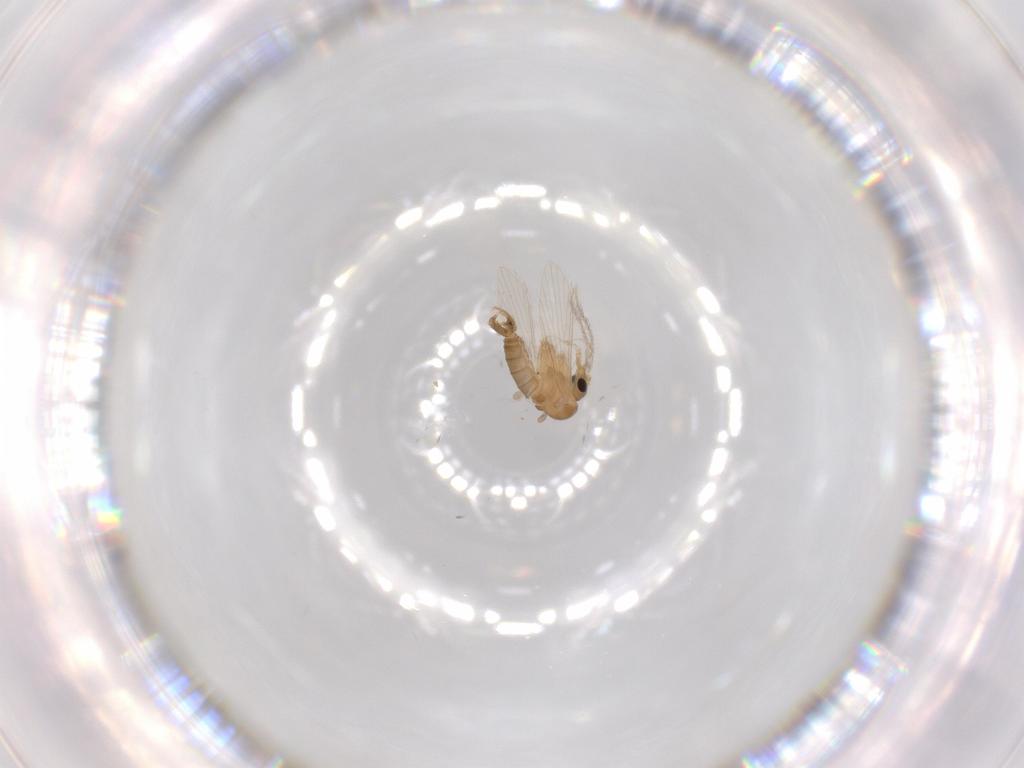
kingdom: Animalia
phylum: Arthropoda
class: Insecta
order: Diptera
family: Psychodidae
